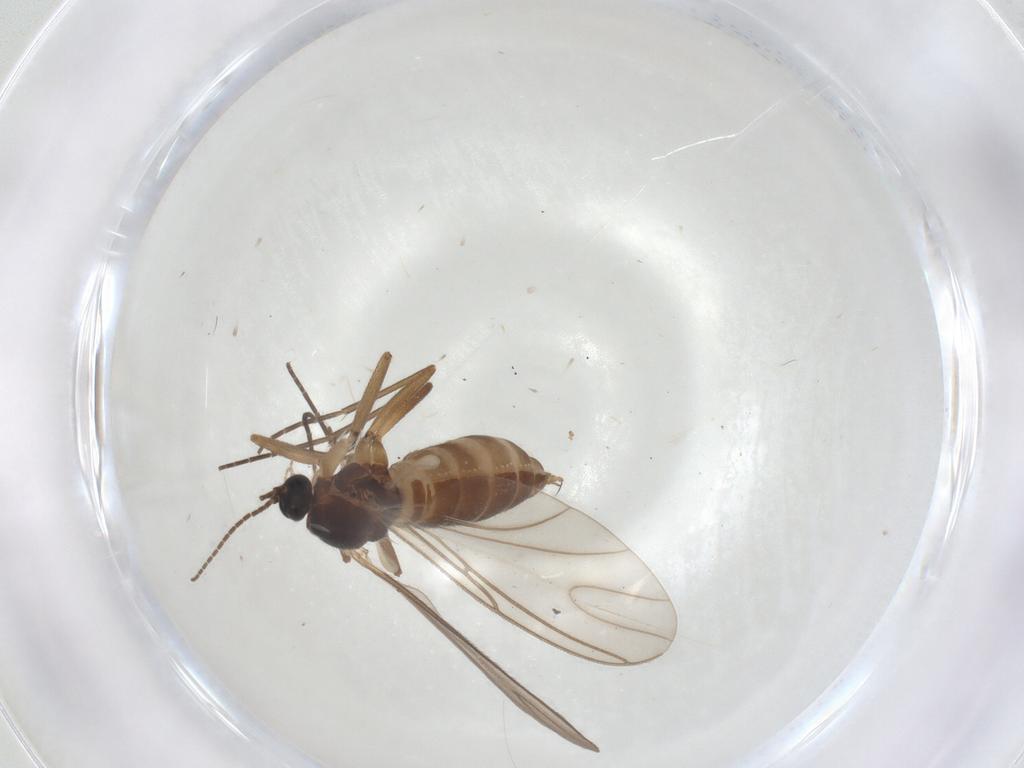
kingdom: Animalia
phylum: Arthropoda
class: Insecta
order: Diptera
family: Sciaridae
